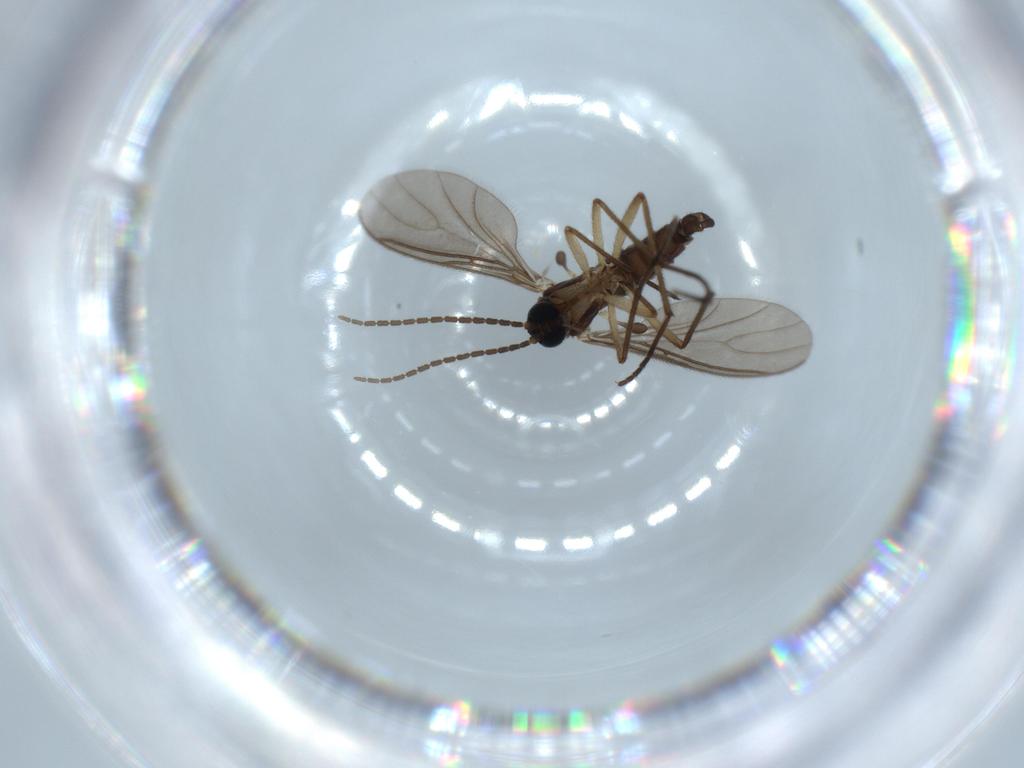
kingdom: Animalia
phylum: Arthropoda
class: Insecta
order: Diptera
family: Sciaridae
